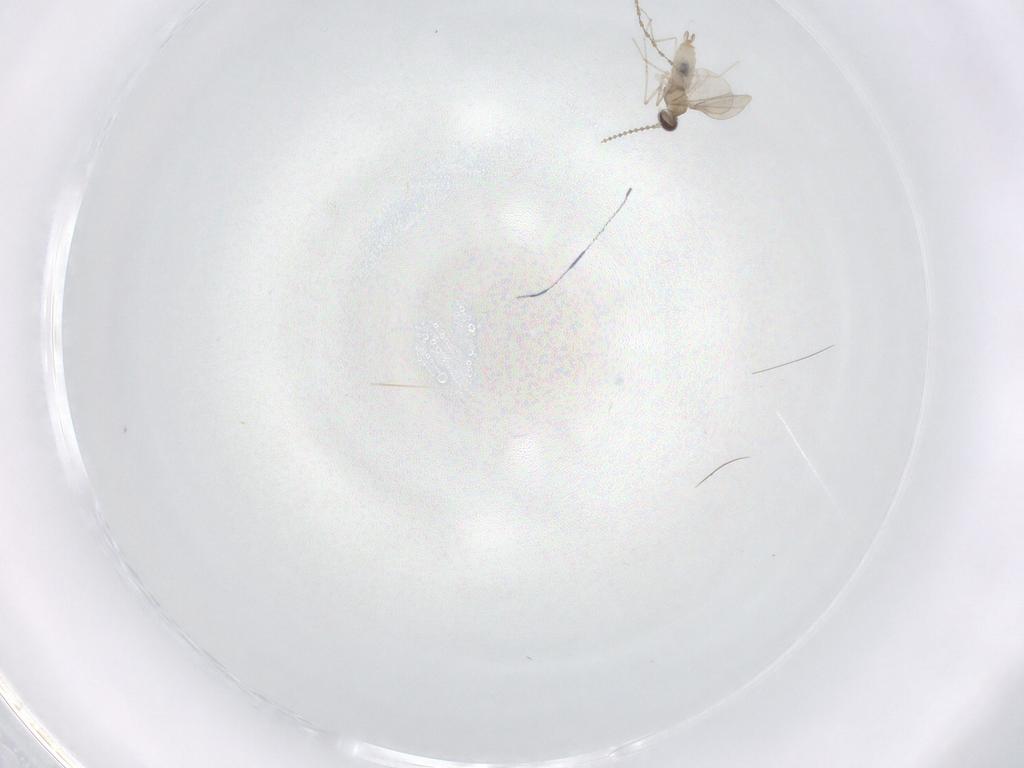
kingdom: Animalia
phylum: Arthropoda
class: Insecta
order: Diptera
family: Cecidomyiidae
